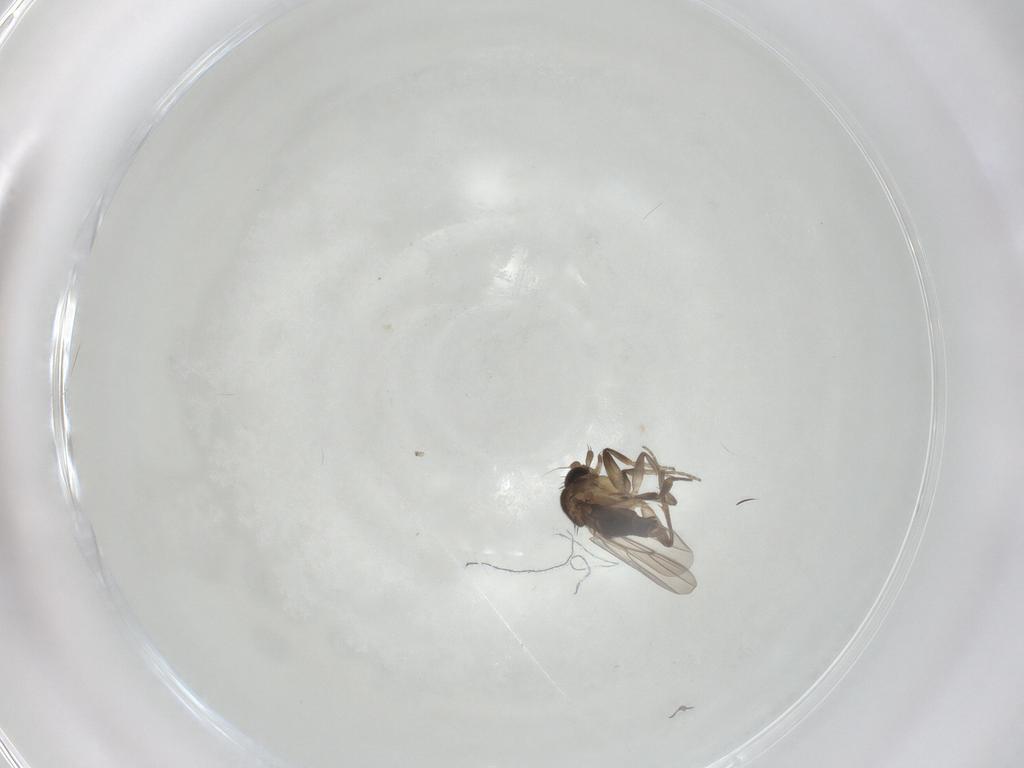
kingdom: Animalia
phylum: Arthropoda
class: Insecta
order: Diptera
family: Phoridae
